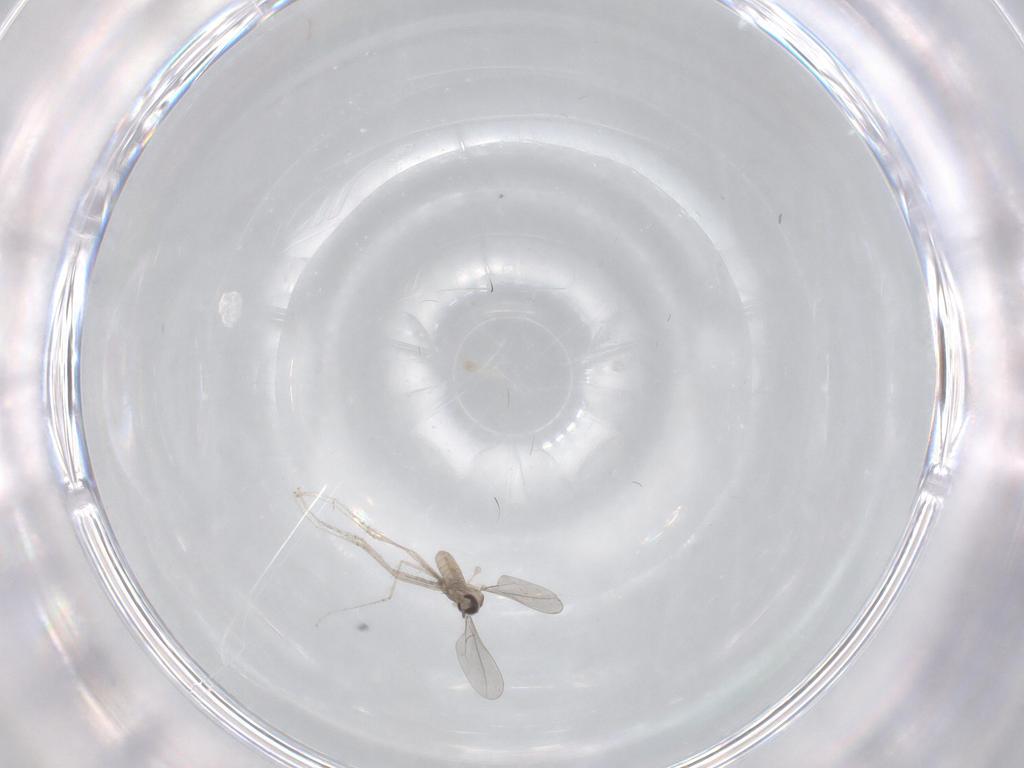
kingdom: Animalia
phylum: Arthropoda
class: Insecta
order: Diptera
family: Cecidomyiidae
